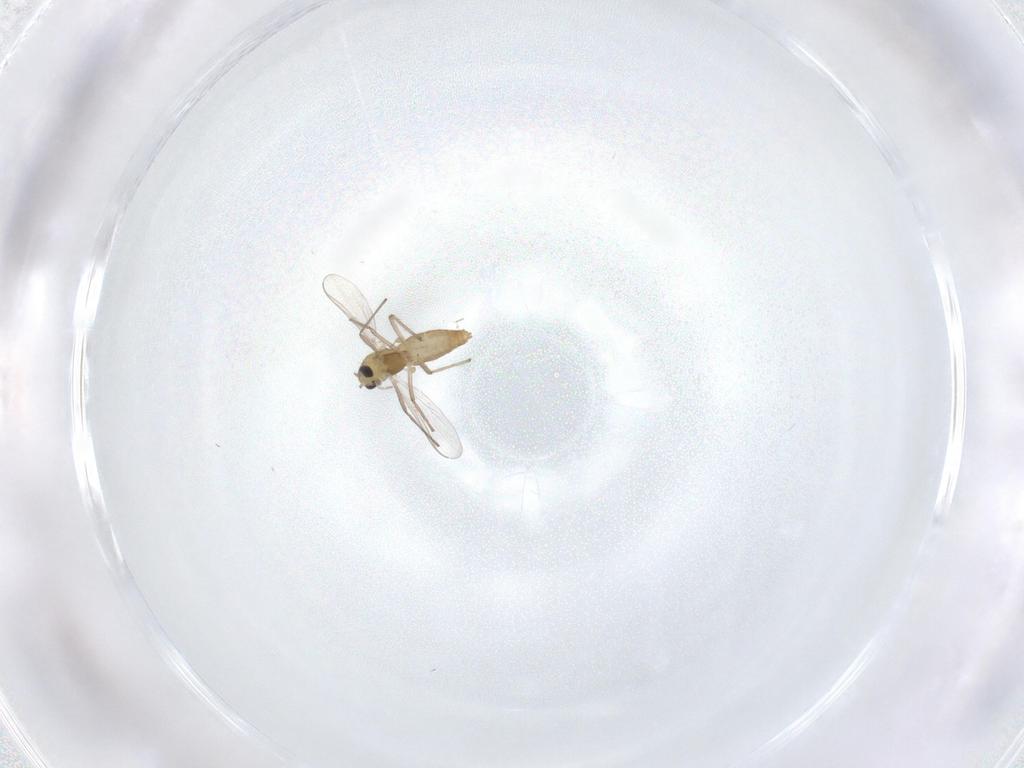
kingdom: Animalia
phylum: Arthropoda
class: Insecta
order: Diptera
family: Chironomidae
